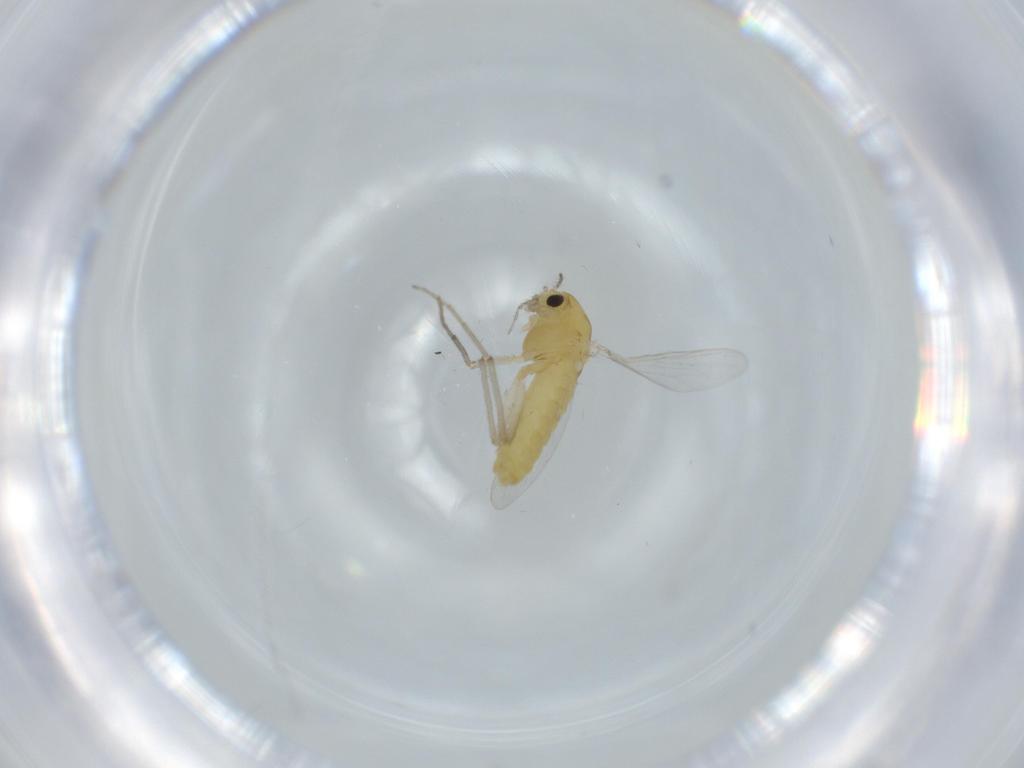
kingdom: Animalia
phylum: Arthropoda
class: Insecta
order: Diptera
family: Chironomidae
